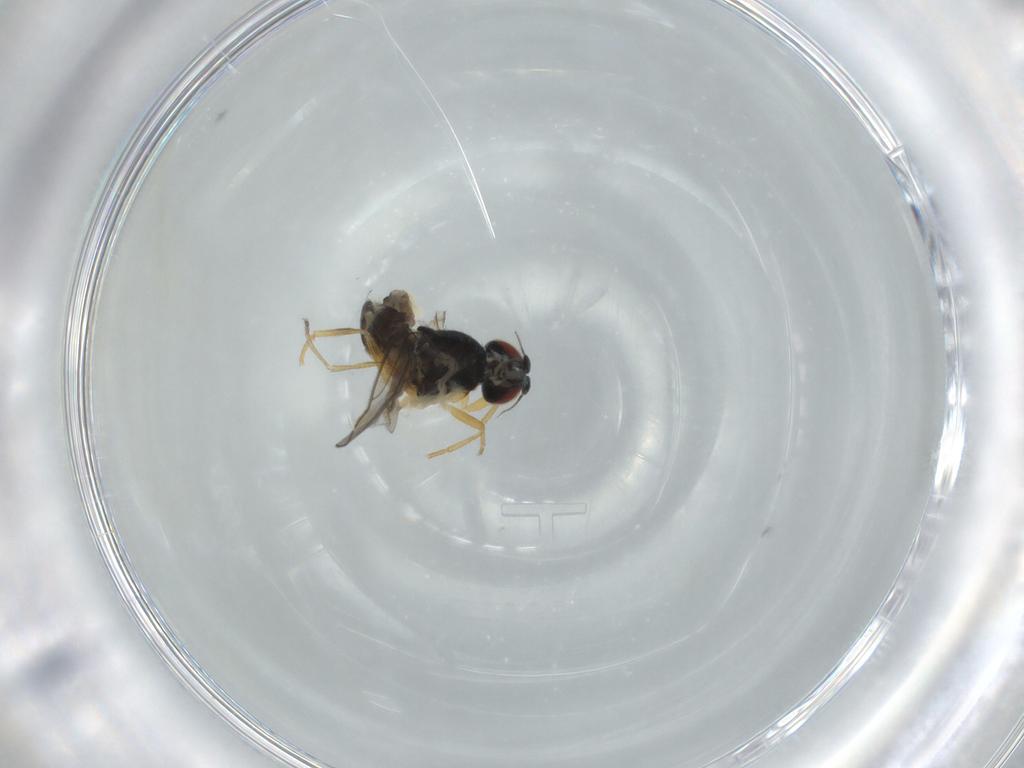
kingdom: Animalia
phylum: Arthropoda
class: Insecta
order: Diptera
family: Chloropidae
